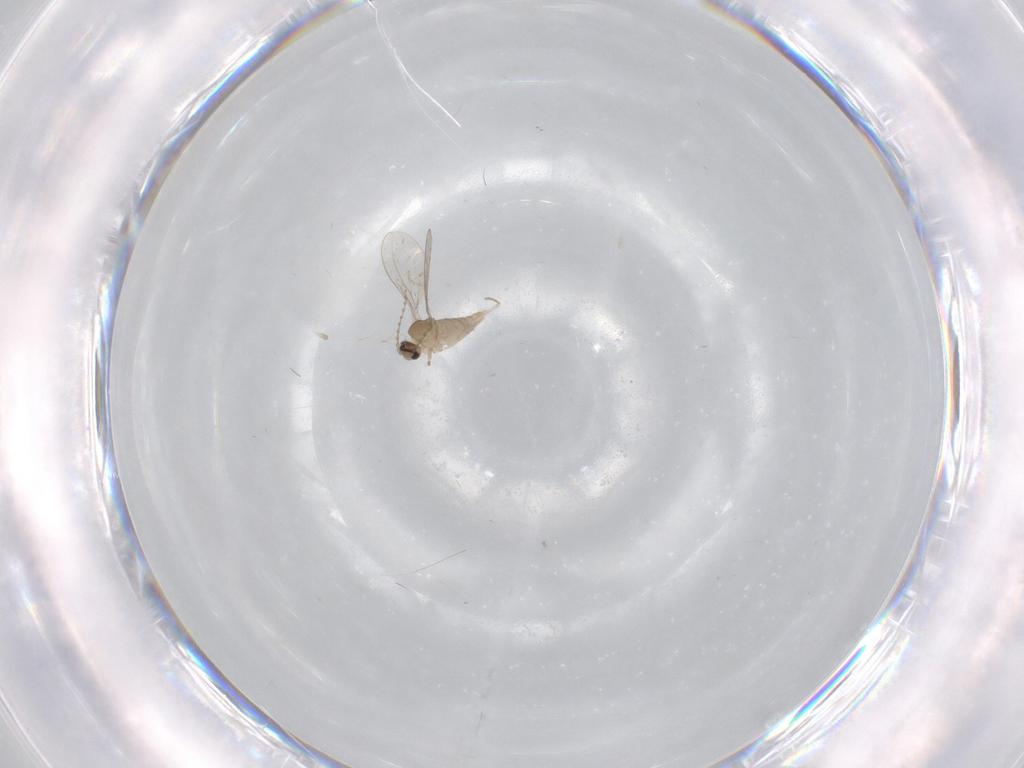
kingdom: Animalia
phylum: Arthropoda
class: Insecta
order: Diptera
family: Cecidomyiidae
